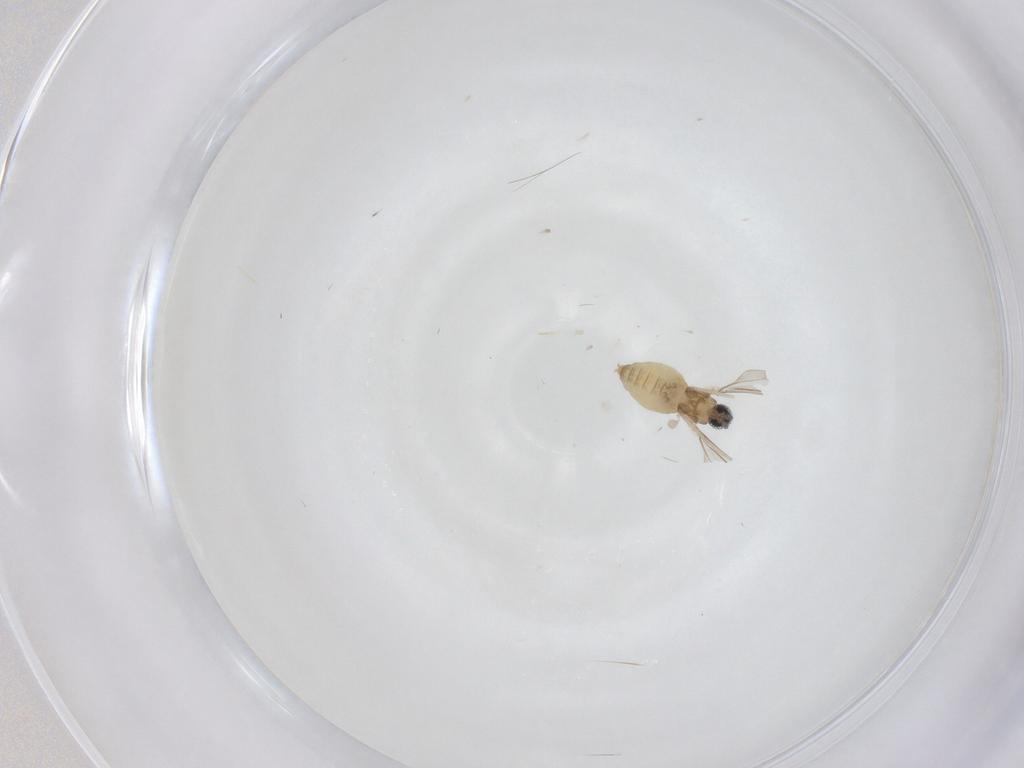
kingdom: Animalia
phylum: Arthropoda
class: Insecta
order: Diptera
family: Cecidomyiidae
